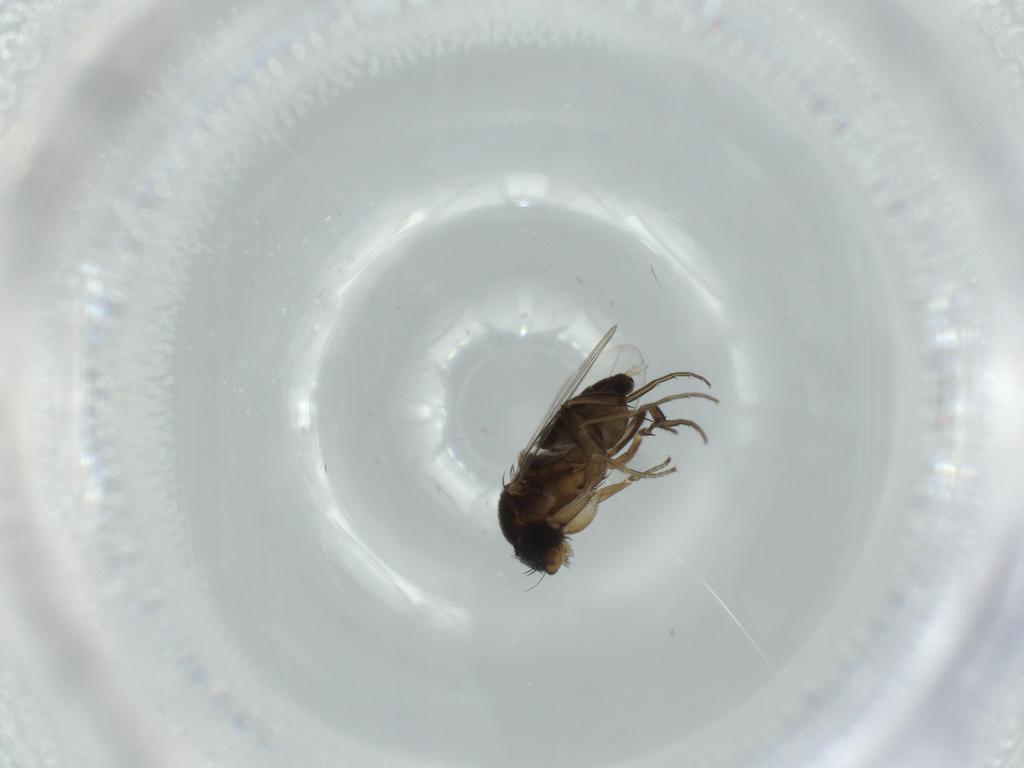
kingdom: Animalia
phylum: Arthropoda
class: Insecta
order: Diptera
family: Phoridae
